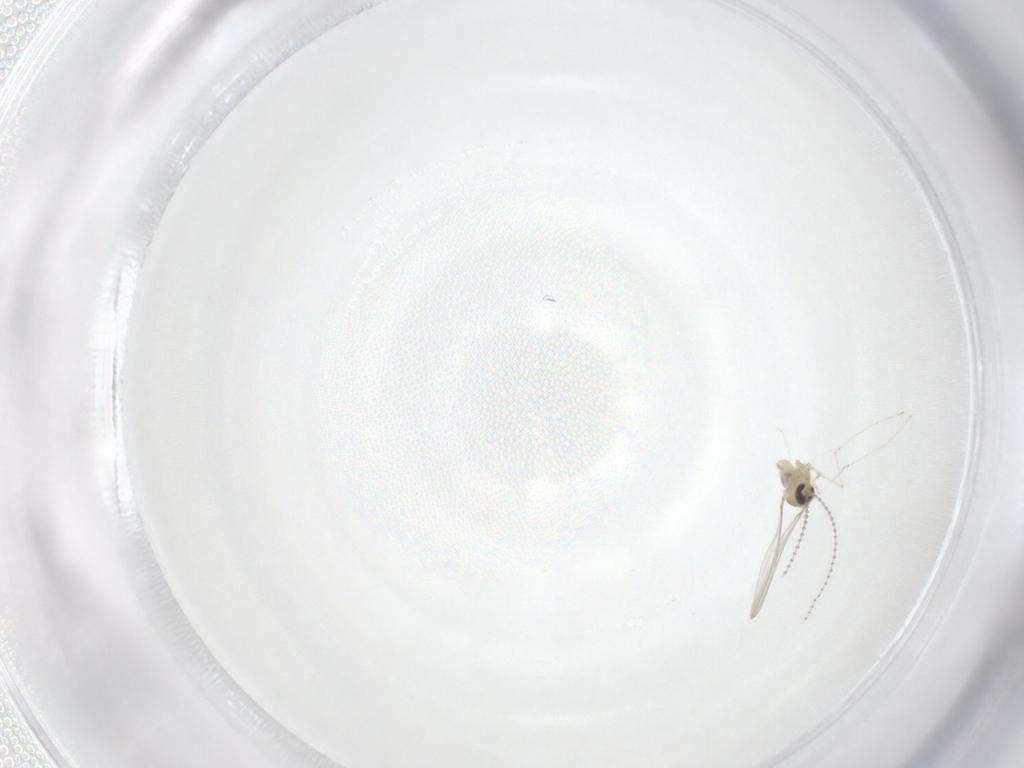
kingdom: Animalia
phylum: Arthropoda
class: Insecta
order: Diptera
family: Cecidomyiidae
